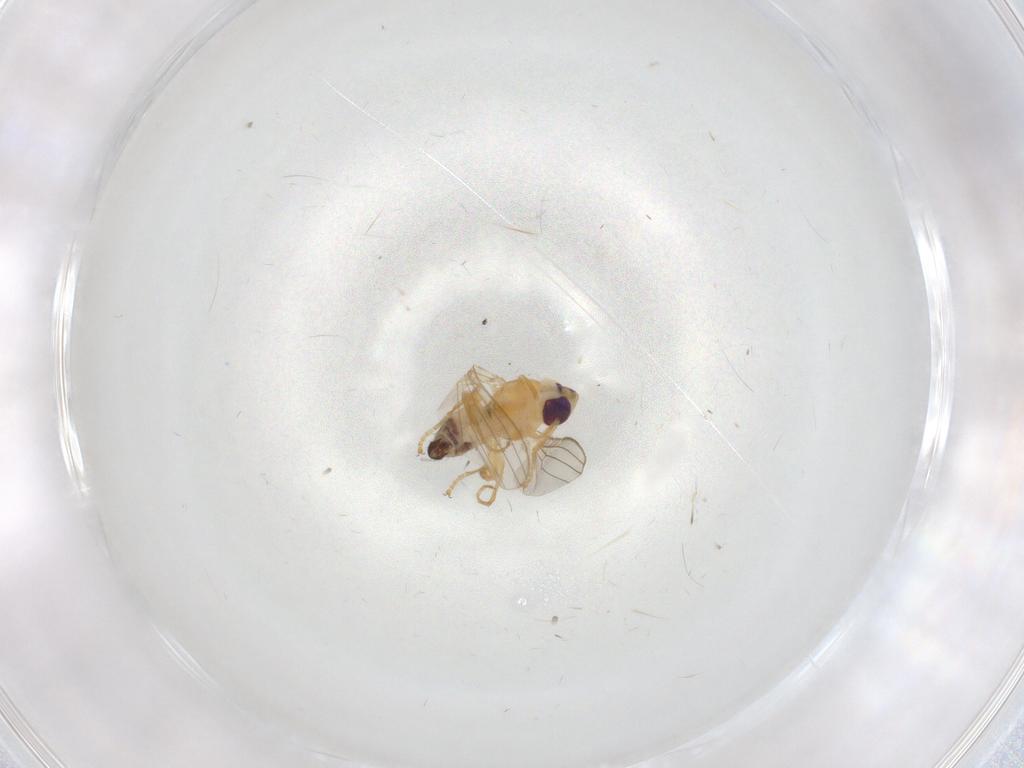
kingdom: Animalia
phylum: Arthropoda
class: Insecta
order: Diptera
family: Chyromyidae
